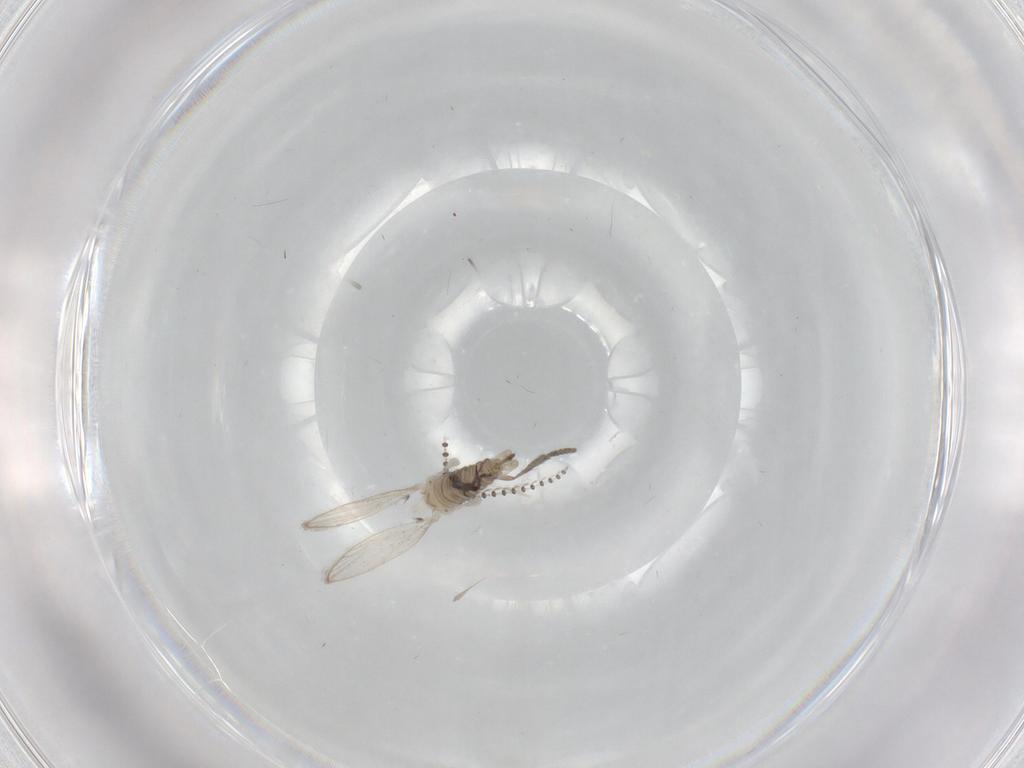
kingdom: Animalia
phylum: Arthropoda
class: Insecta
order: Diptera
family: Psychodidae
